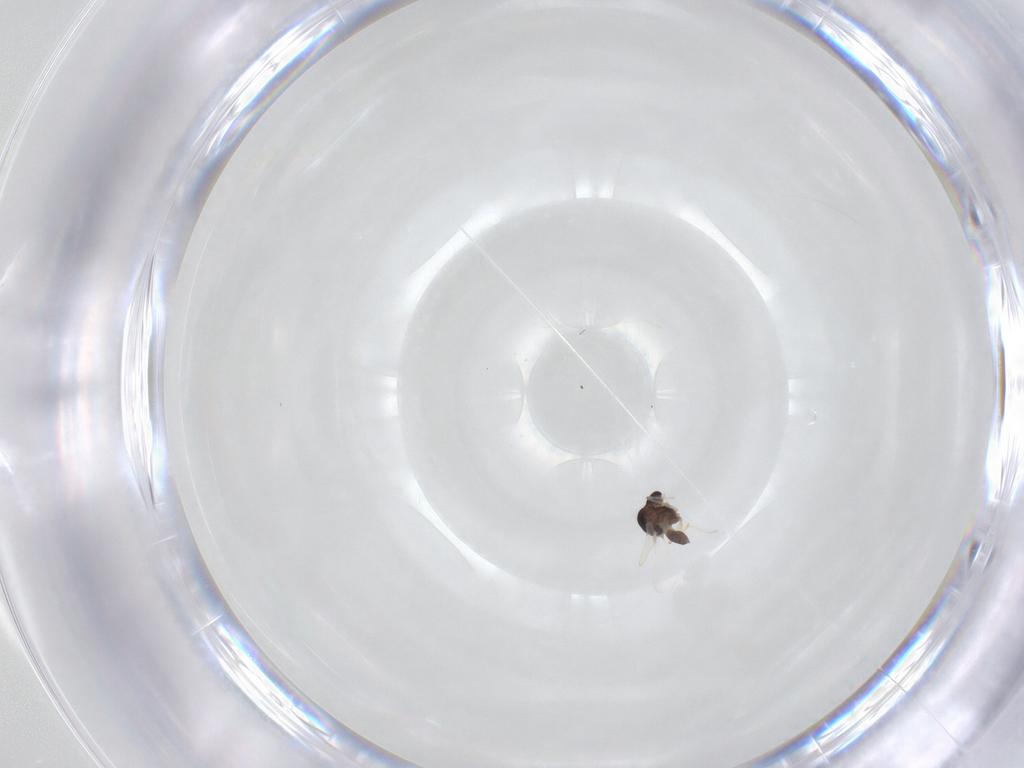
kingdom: Animalia
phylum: Arthropoda
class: Insecta
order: Diptera
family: Chironomidae
